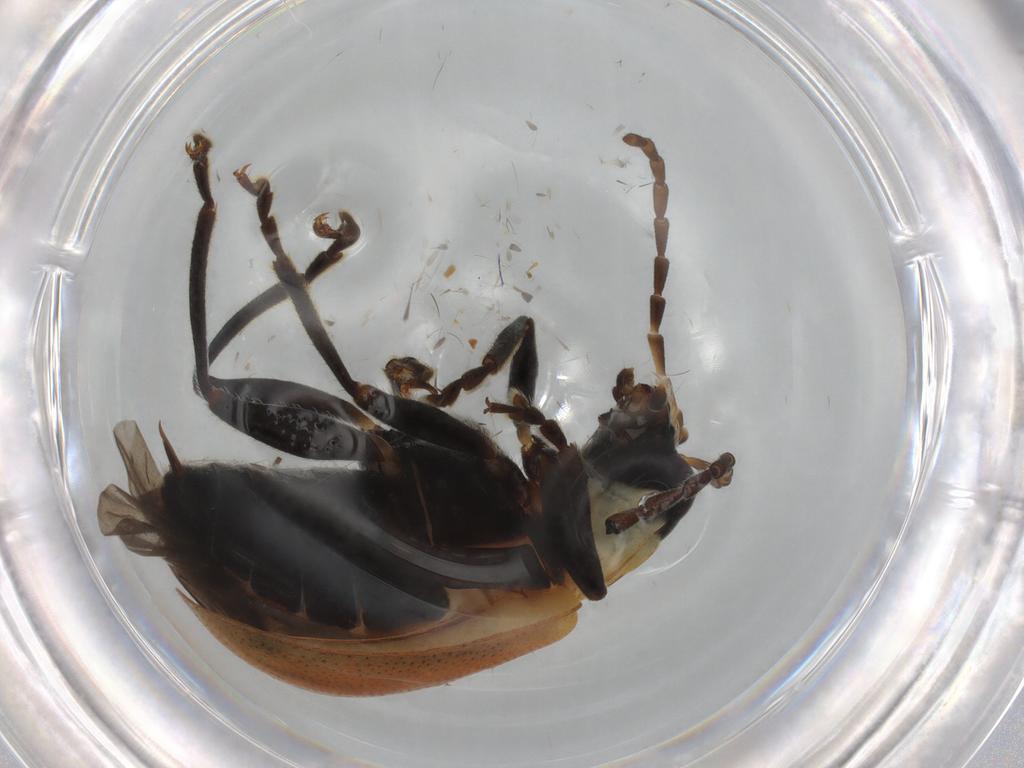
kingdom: Animalia
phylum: Arthropoda
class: Insecta
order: Coleoptera
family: Chrysomelidae
